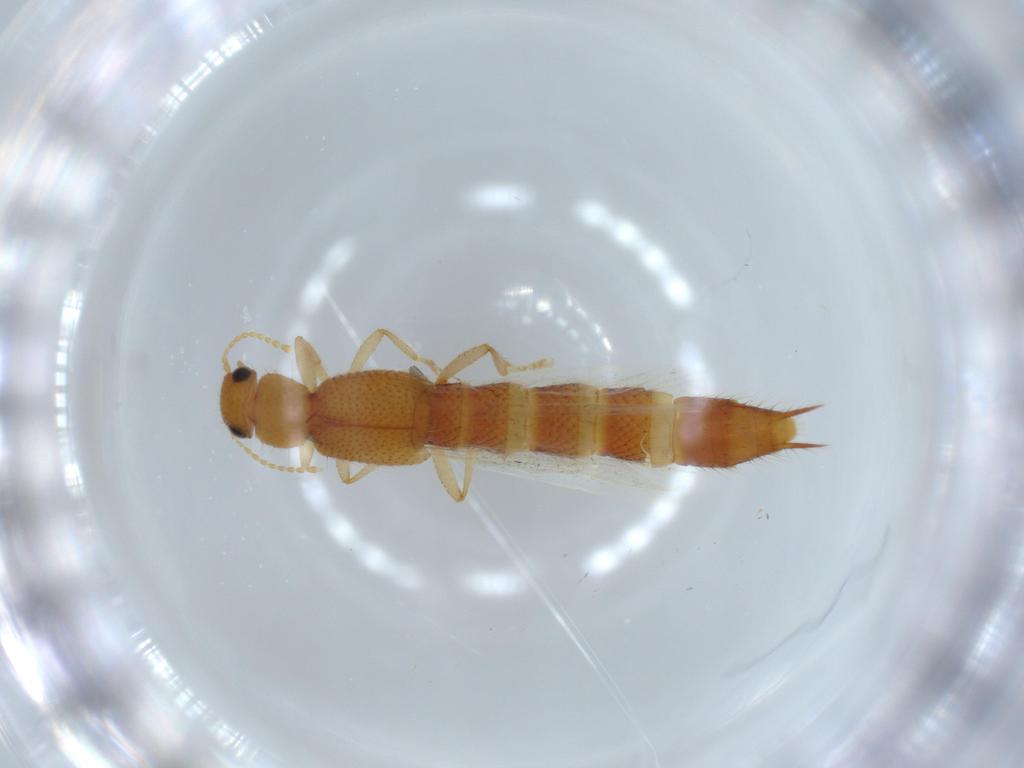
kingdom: Animalia
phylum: Arthropoda
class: Insecta
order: Coleoptera
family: Staphylinidae
